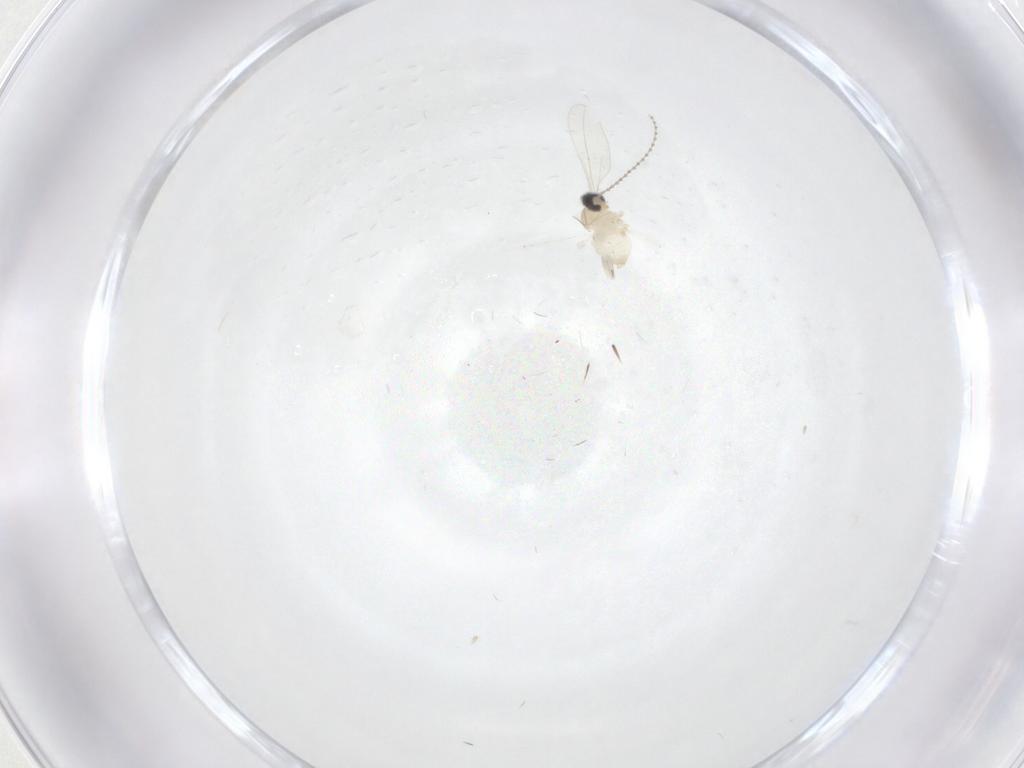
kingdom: Animalia
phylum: Arthropoda
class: Insecta
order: Diptera
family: Cecidomyiidae
